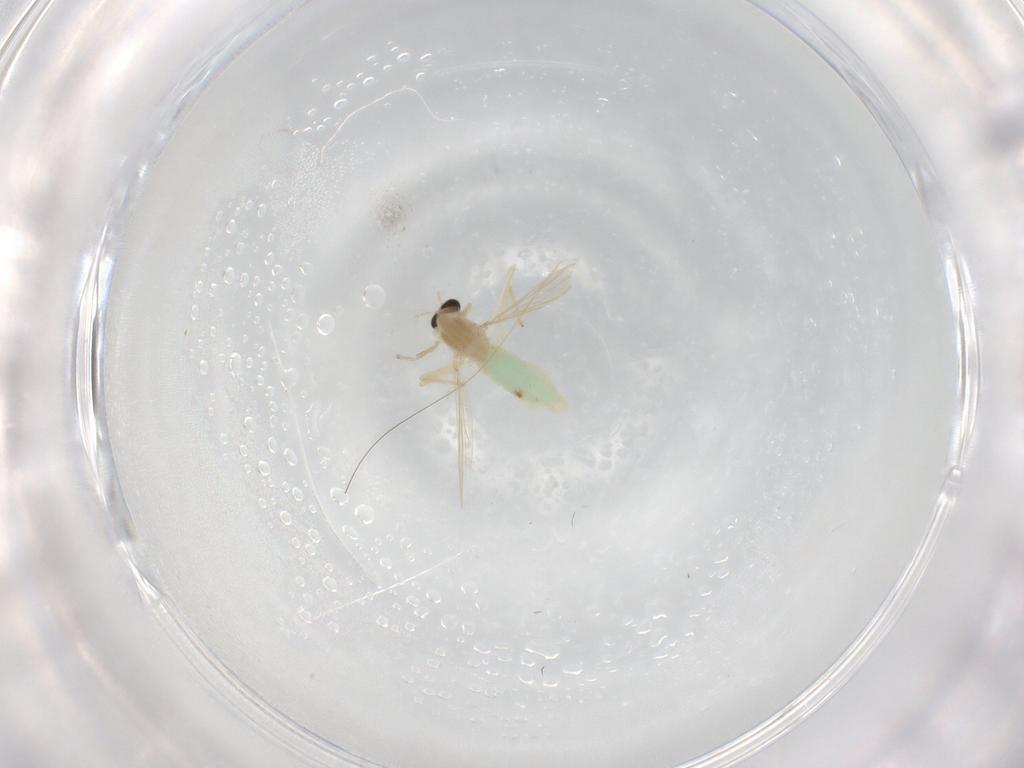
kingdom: Animalia
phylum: Arthropoda
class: Insecta
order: Diptera
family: Chironomidae
